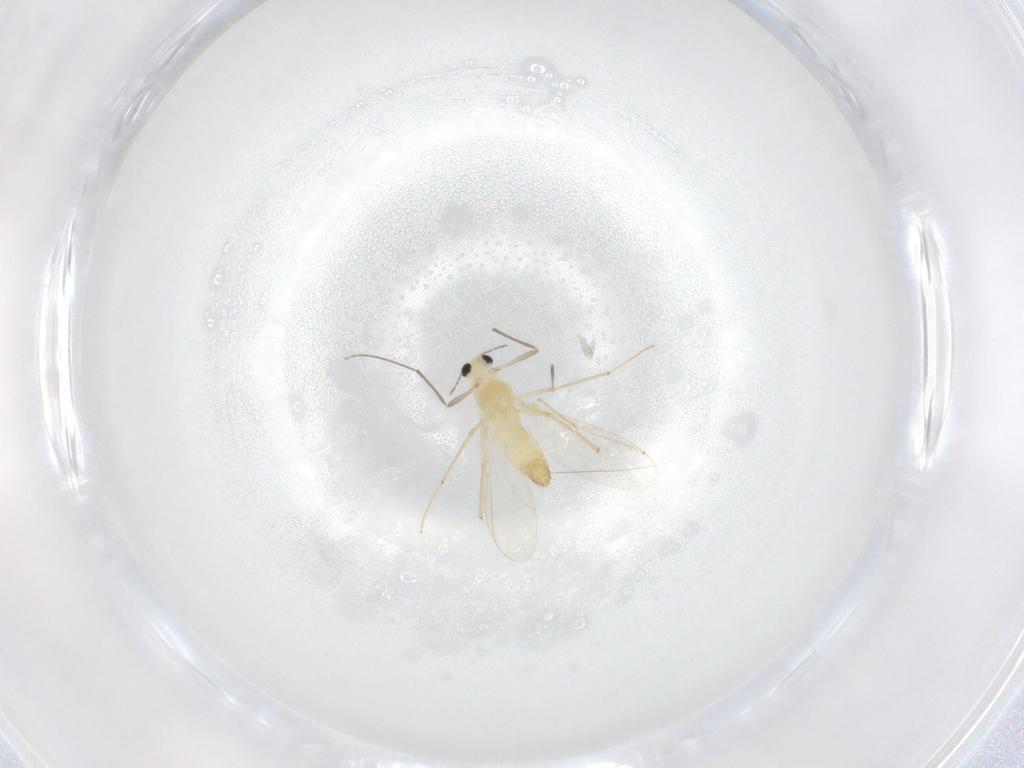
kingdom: Animalia
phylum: Arthropoda
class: Insecta
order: Diptera
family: Chironomidae
